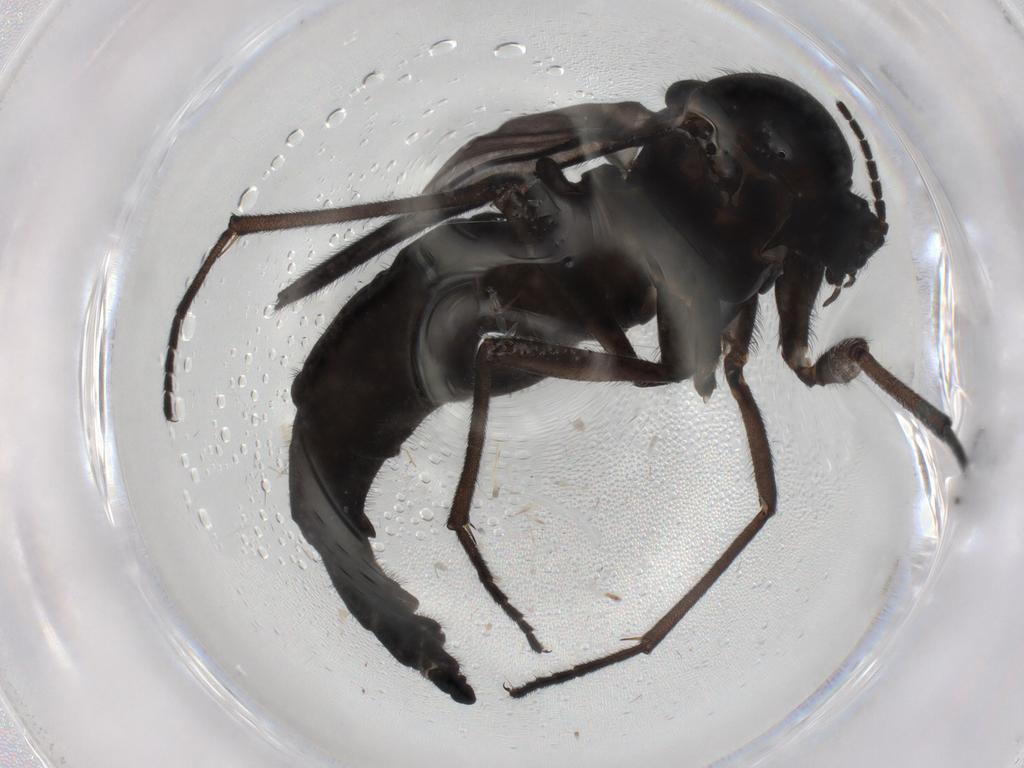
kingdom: Animalia
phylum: Arthropoda
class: Insecta
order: Diptera
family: Sciaridae
